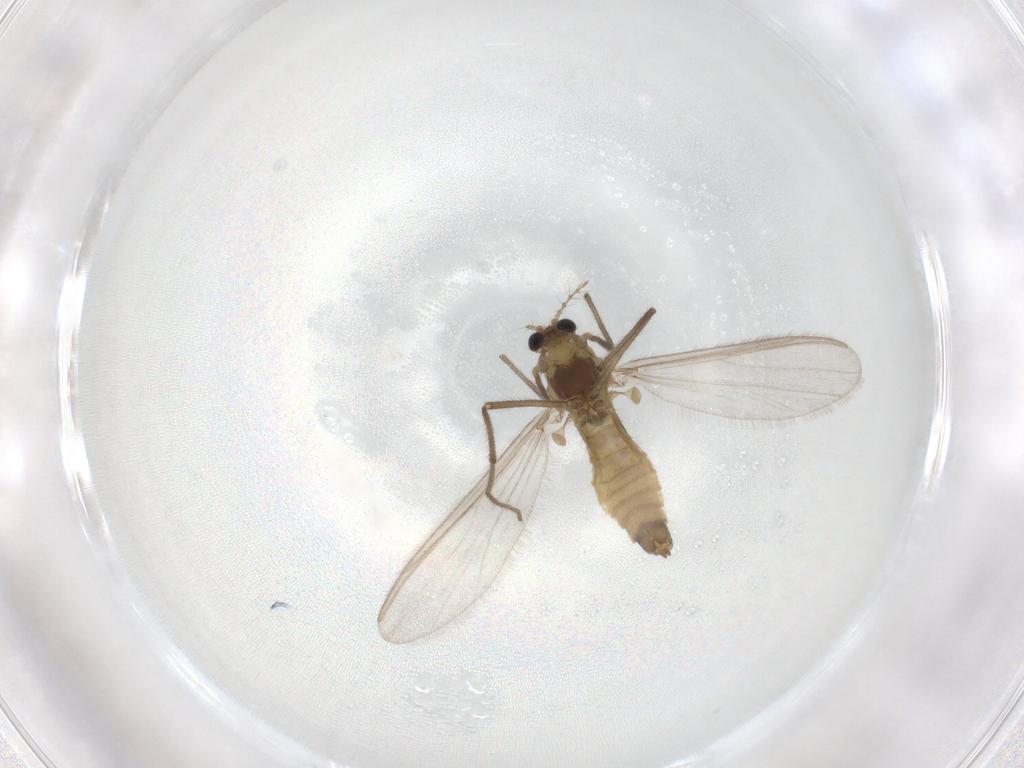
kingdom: Animalia
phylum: Arthropoda
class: Insecta
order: Diptera
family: Chironomidae
